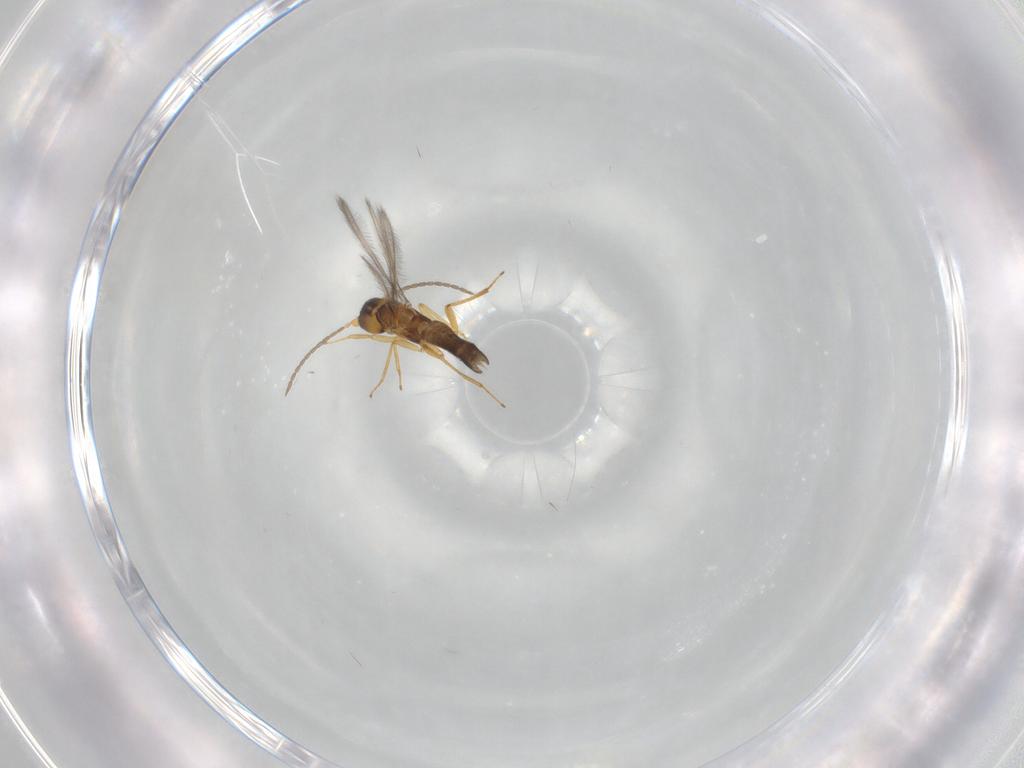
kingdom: Animalia
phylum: Arthropoda
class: Insecta
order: Hymenoptera
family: Mymaridae
